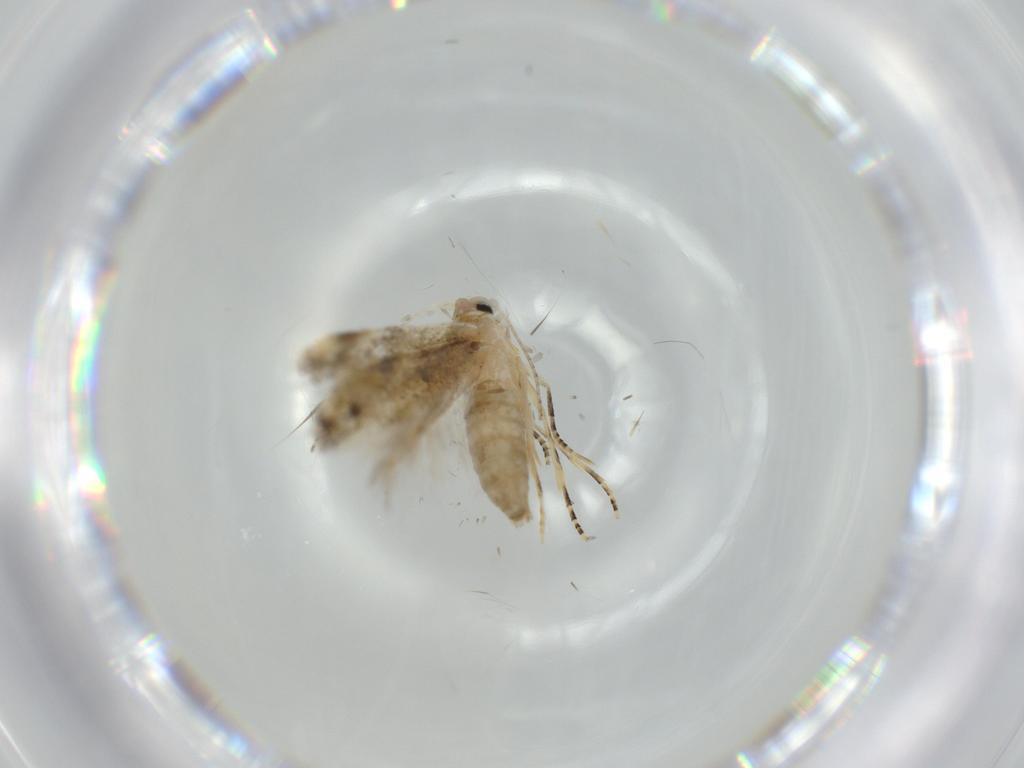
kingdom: Animalia
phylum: Arthropoda
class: Insecta
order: Lepidoptera
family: Bucculatricidae
